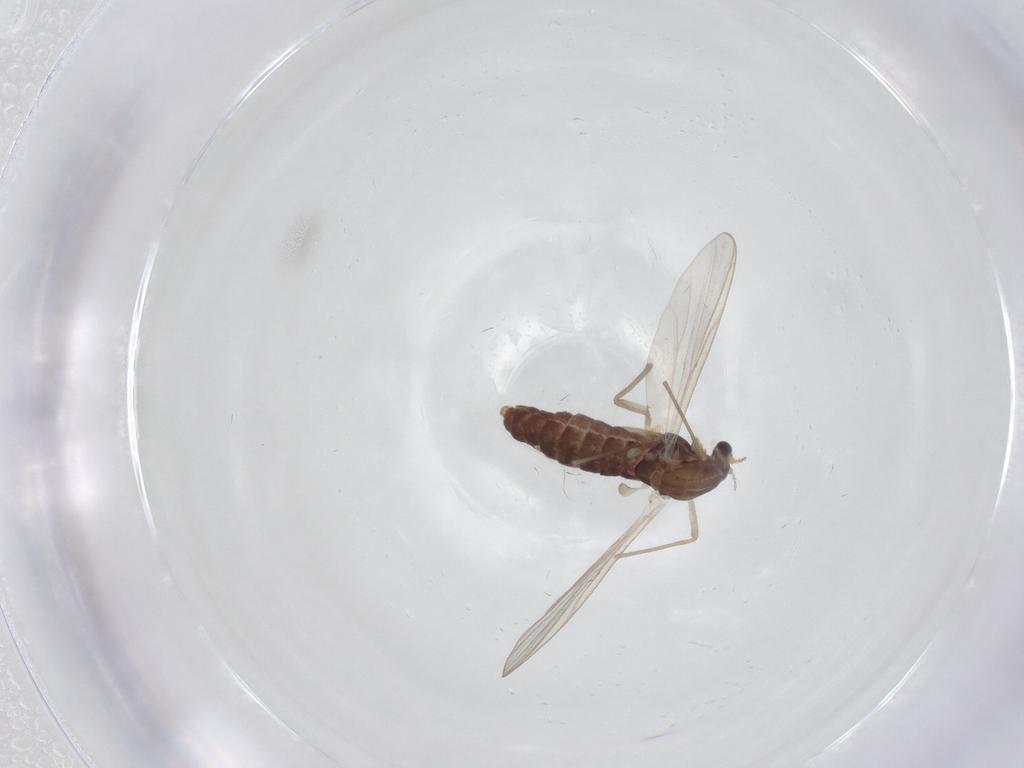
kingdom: Animalia
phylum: Arthropoda
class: Insecta
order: Diptera
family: Chironomidae
